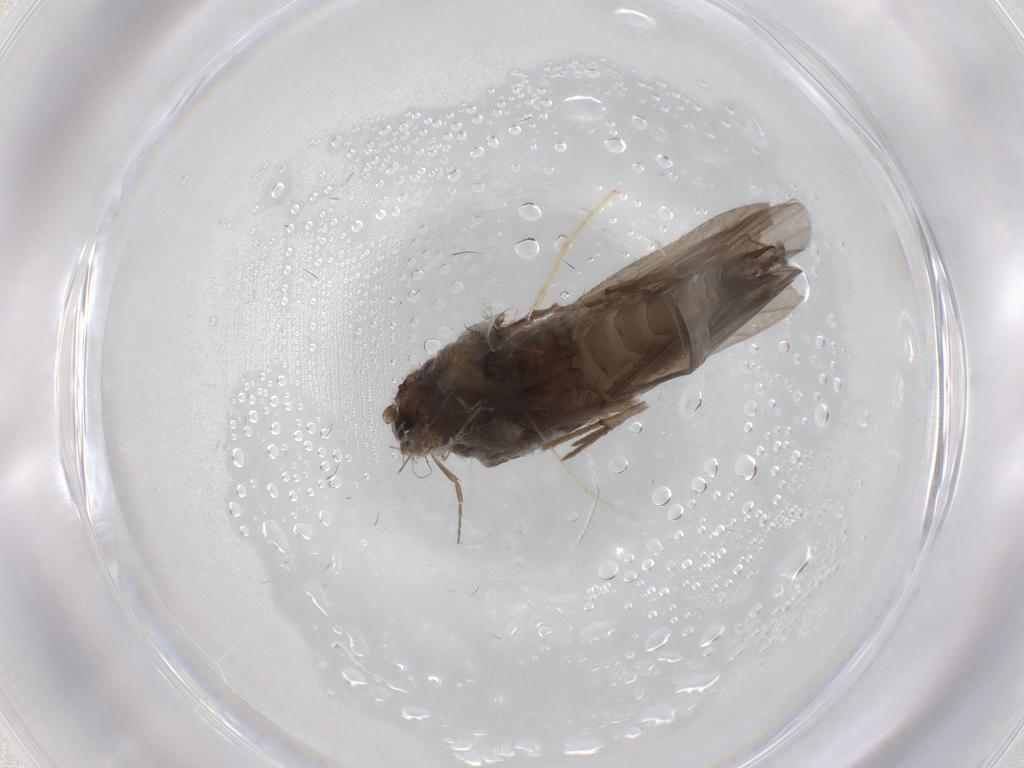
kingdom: Animalia
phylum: Arthropoda
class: Insecta
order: Diptera
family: Chironomidae
